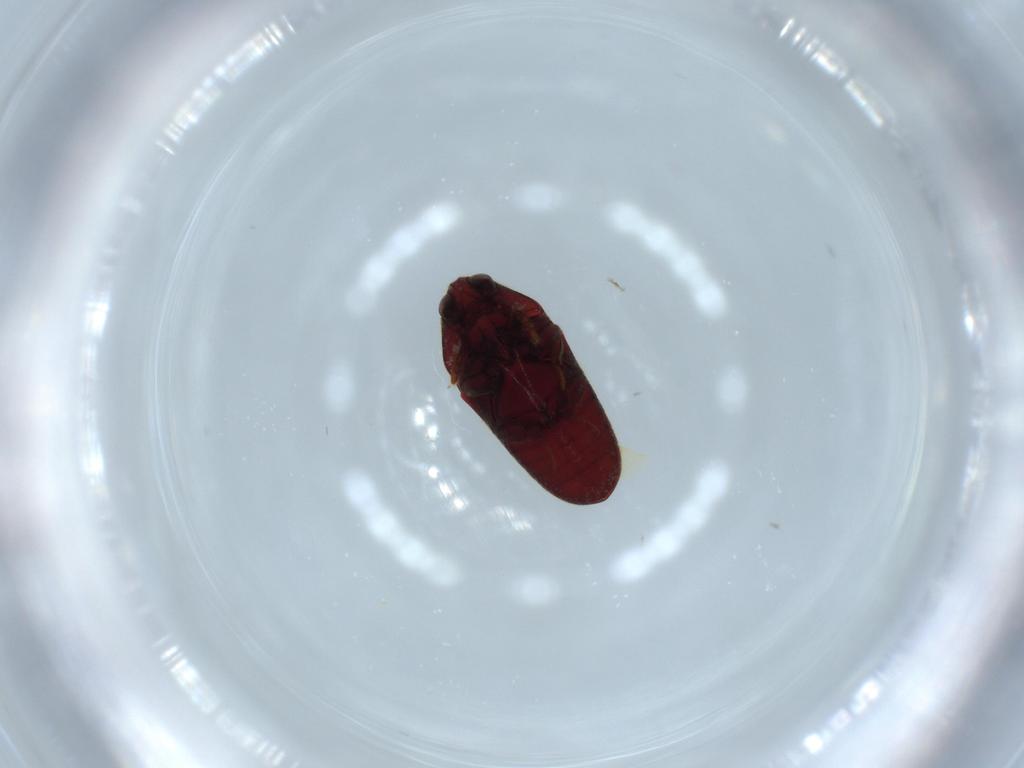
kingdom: Animalia
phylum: Arthropoda
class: Insecta
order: Coleoptera
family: Throscidae
